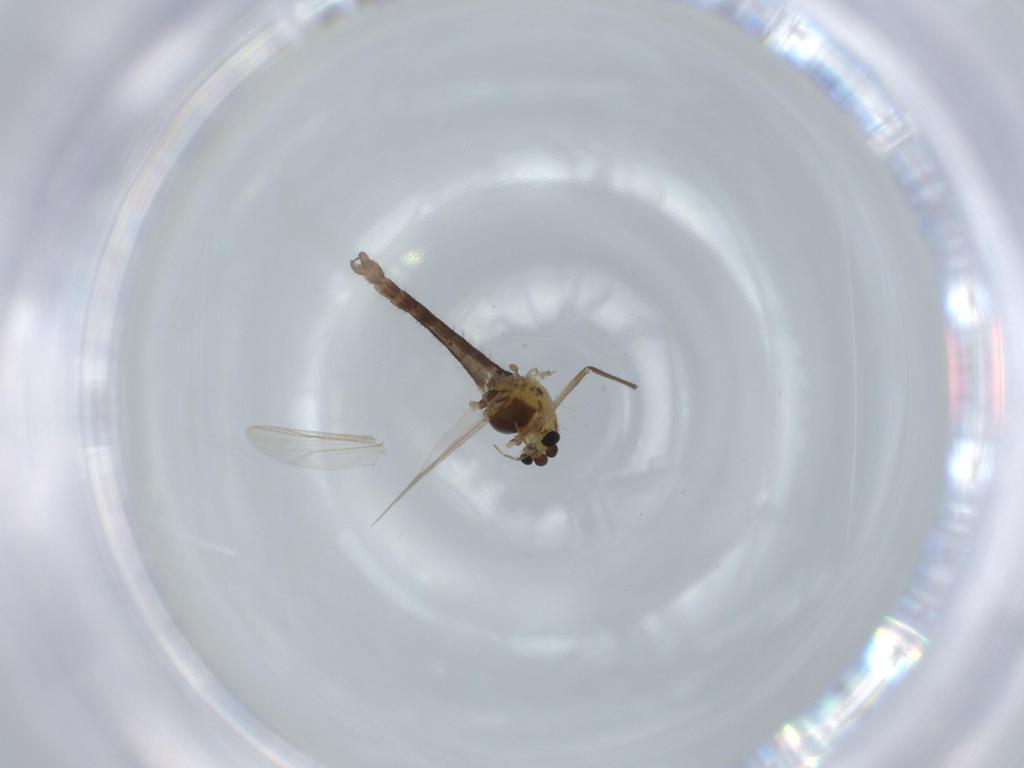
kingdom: Animalia
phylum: Arthropoda
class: Insecta
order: Diptera
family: Chironomidae
